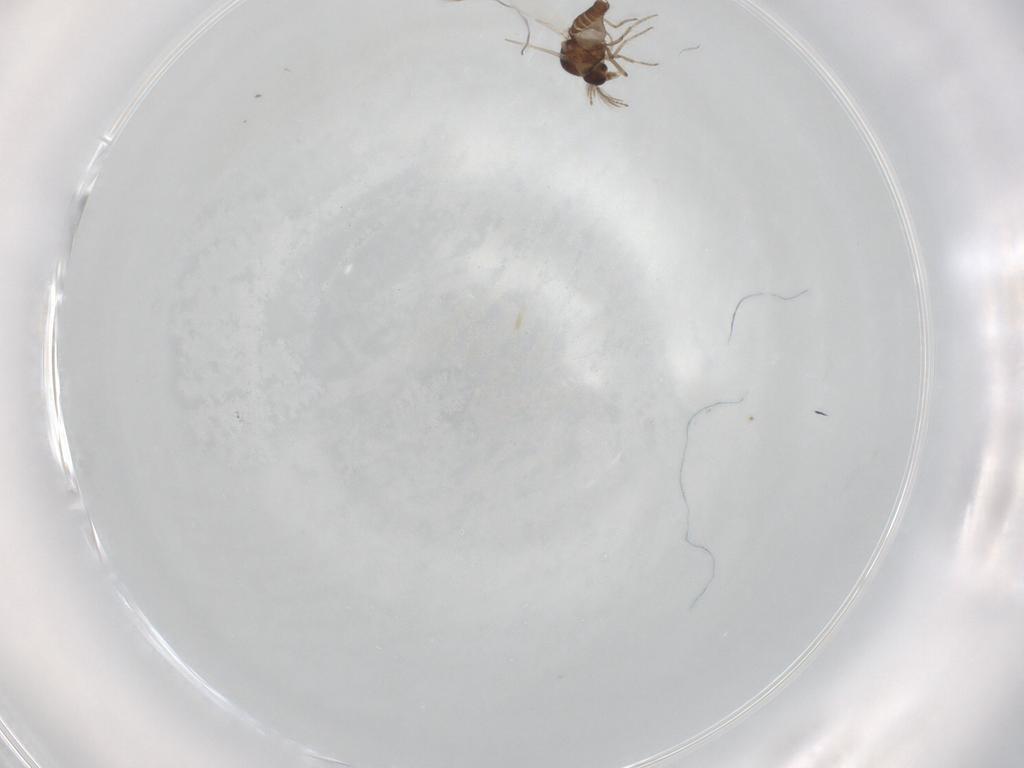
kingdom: Animalia
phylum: Arthropoda
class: Insecta
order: Diptera
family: Ceratopogonidae
